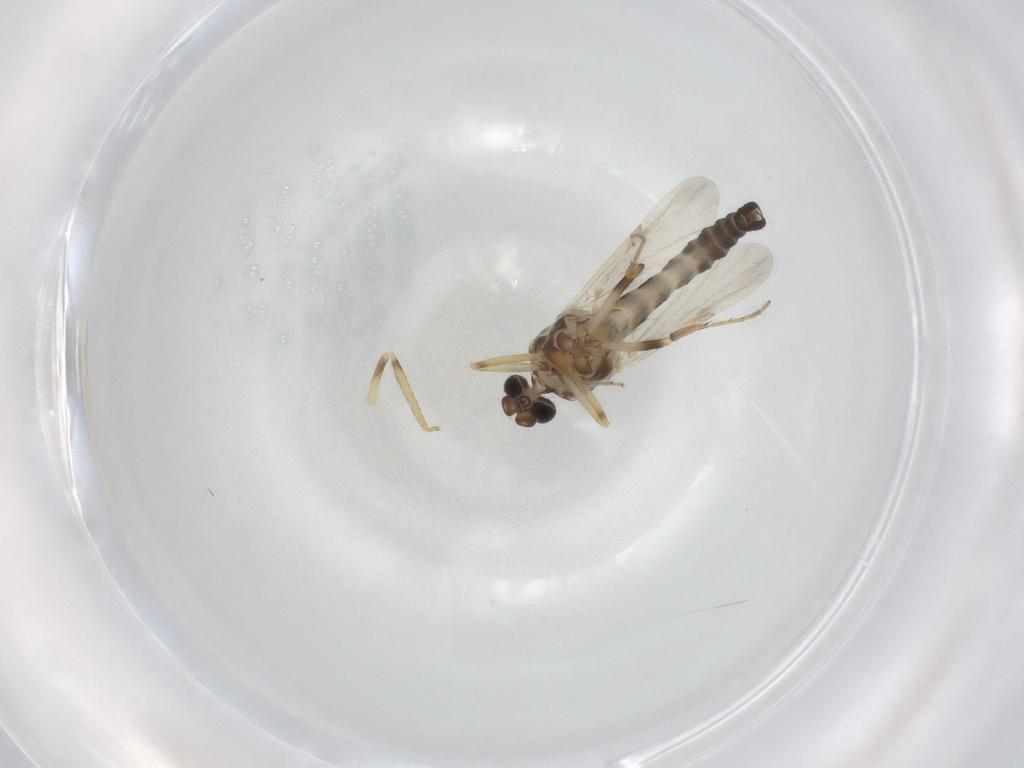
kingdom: Animalia
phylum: Arthropoda
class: Insecta
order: Diptera
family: Ceratopogonidae
